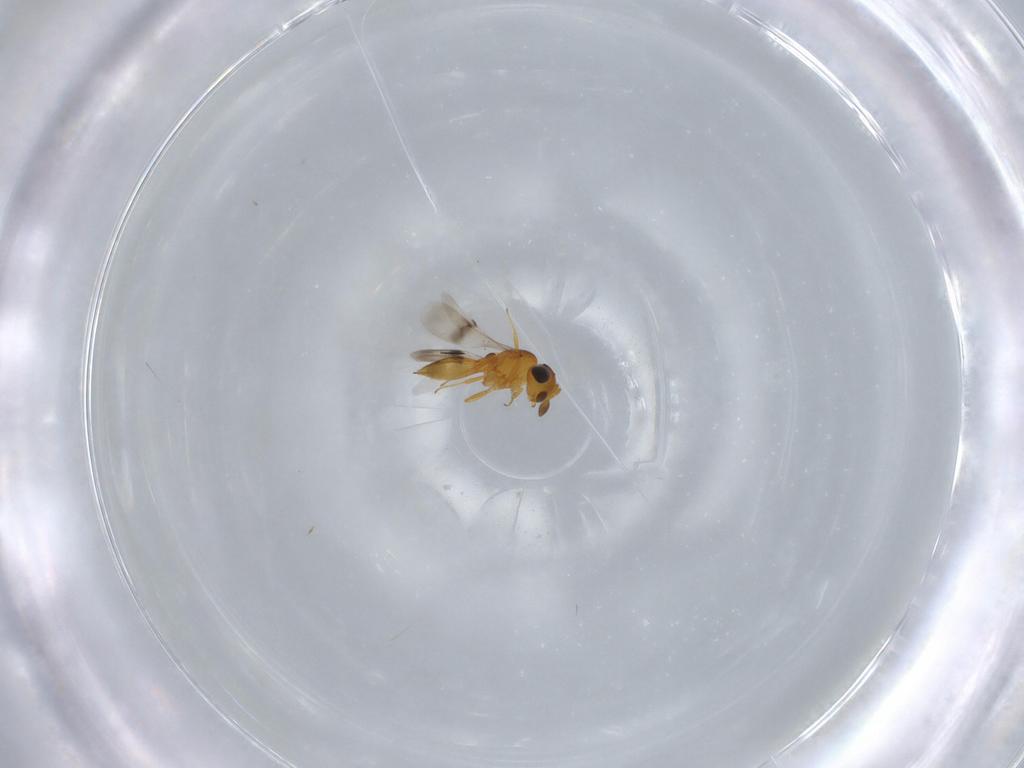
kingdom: Animalia
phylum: Arthropoda
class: Insecta
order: Hymenoptera
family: Scelionidae
